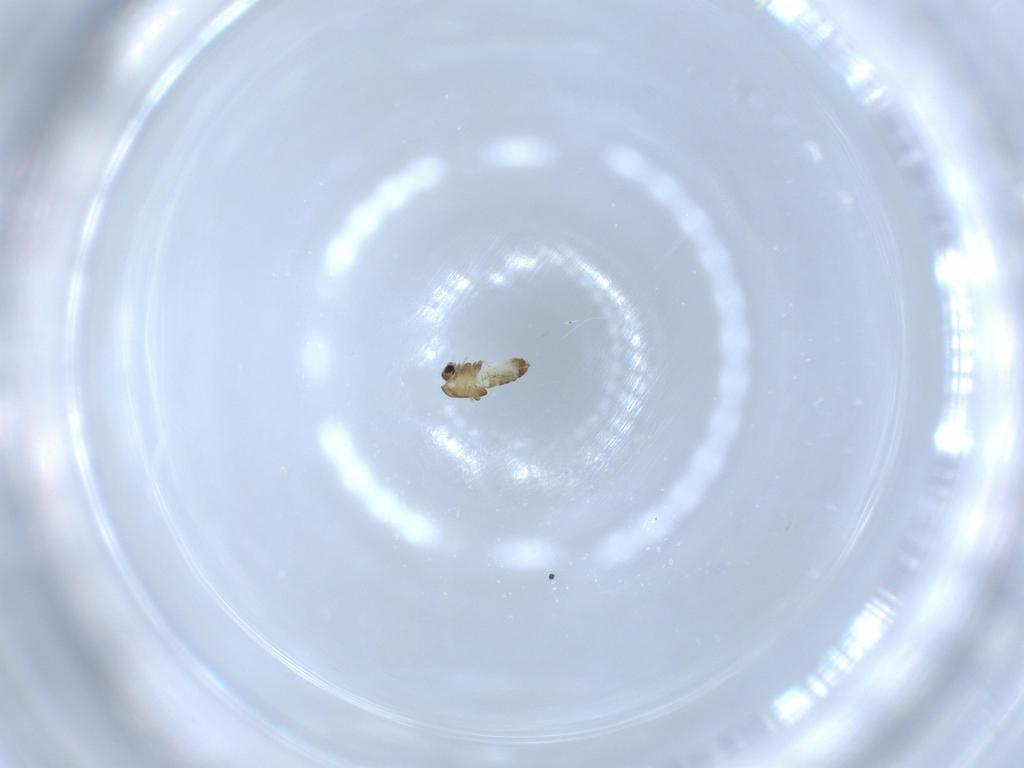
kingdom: Animalia
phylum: Arthropoda
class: Insecta
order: Diptera
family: Chironomidae
